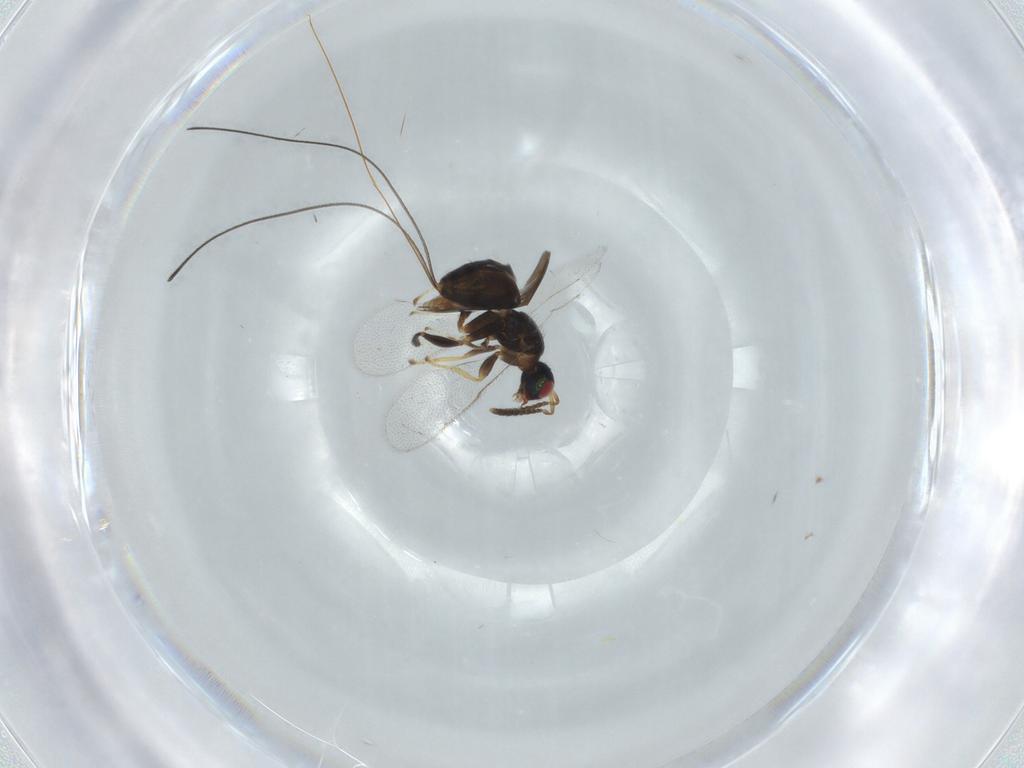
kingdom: Animalia
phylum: Arthropoda
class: Insecta
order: Hymenoptera
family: Torymidae
